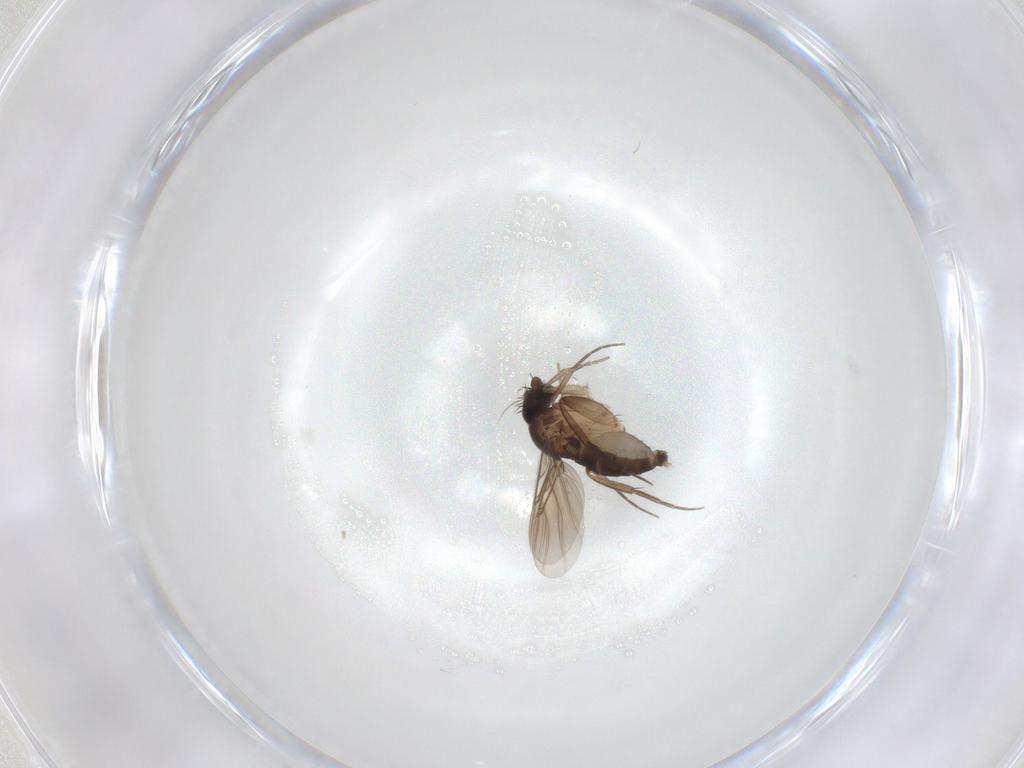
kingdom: Animalia
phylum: Arthropoda
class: Insecta
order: Diptera
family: Phoridae
